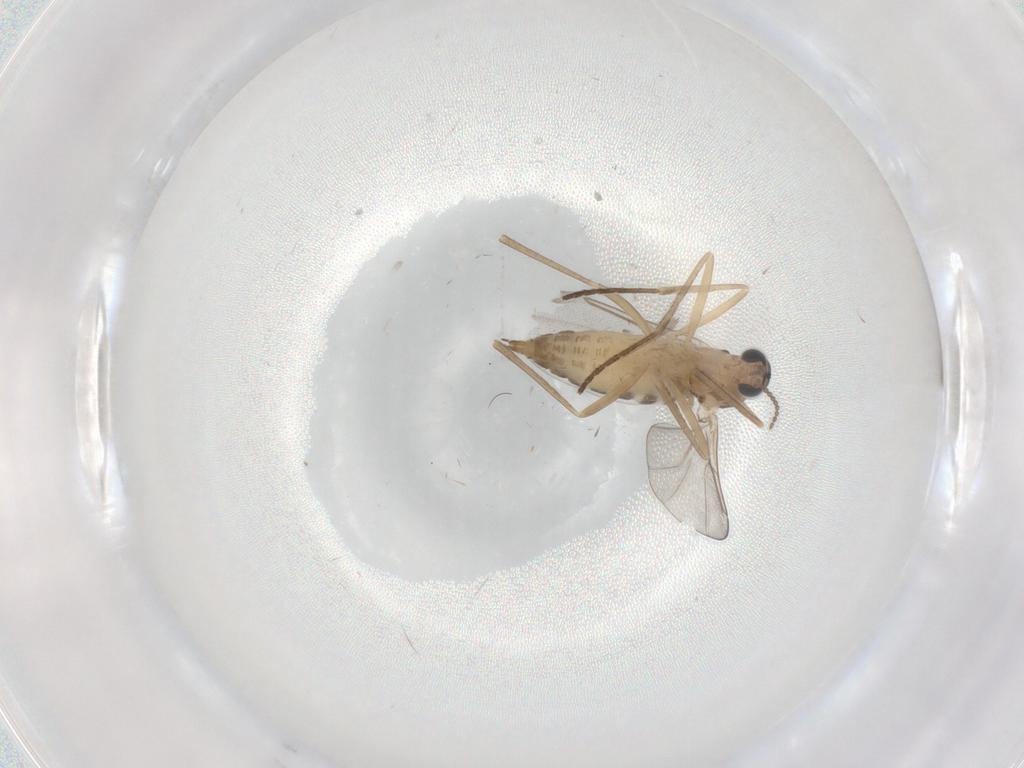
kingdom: Animalia
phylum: Arthropoda
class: Insecta
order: Diptera
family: Cecidomyiidae
